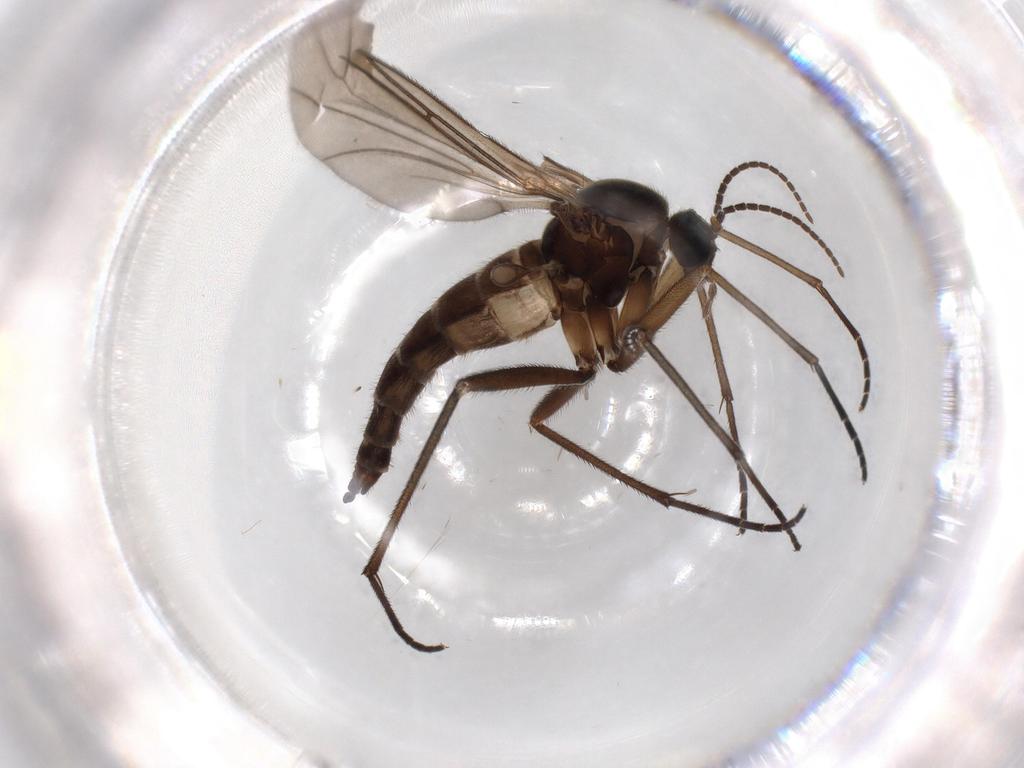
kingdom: Animalia
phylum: Arthropoda
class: Insecta
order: Diptera
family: Sciaridae
